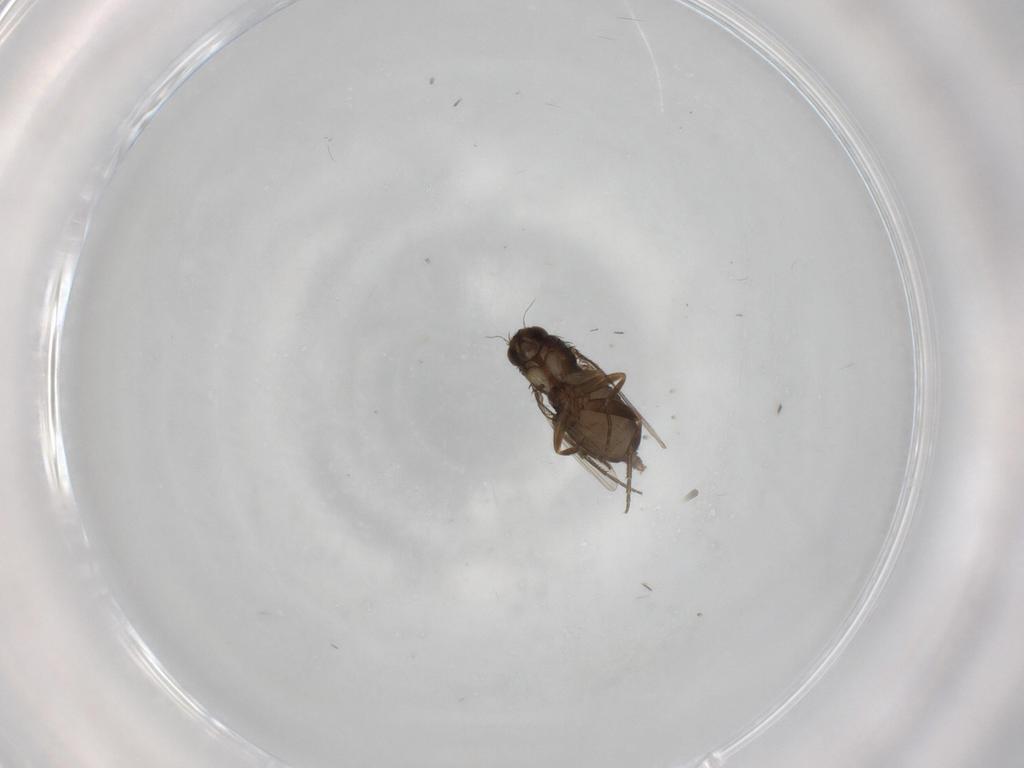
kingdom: Animalia
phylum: Arthropoda
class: Insecta
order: Diptera
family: Phoridae
